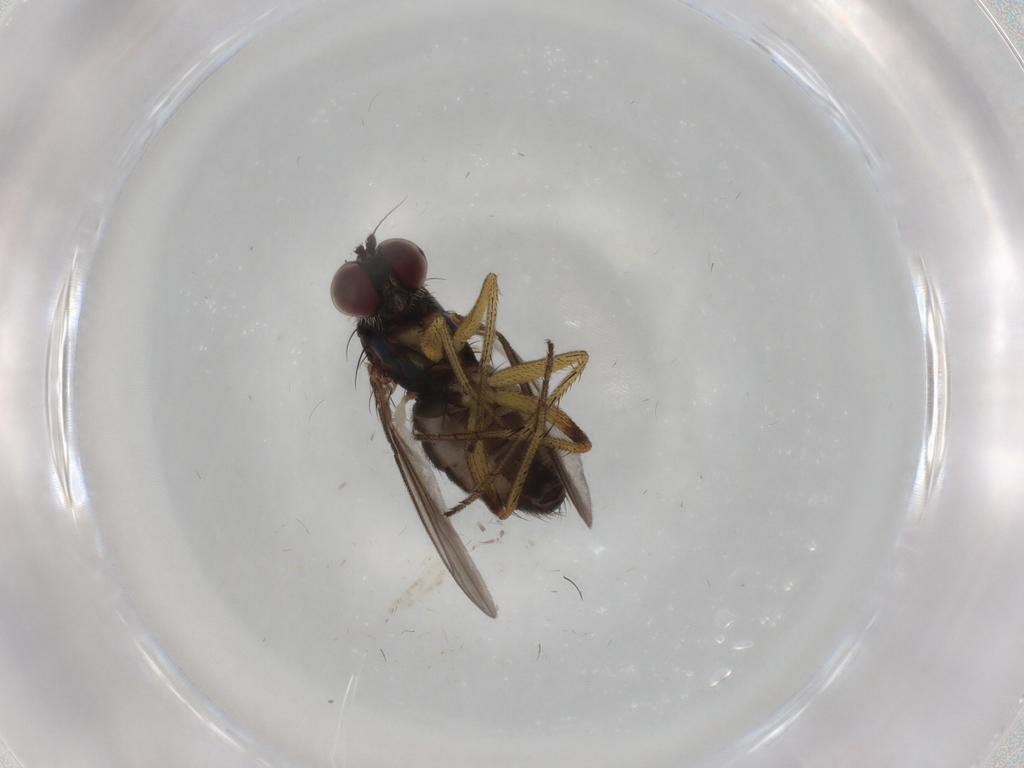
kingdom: Animalia
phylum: Arthropoda
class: Insecta
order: Diptera
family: Dolichopodidae
